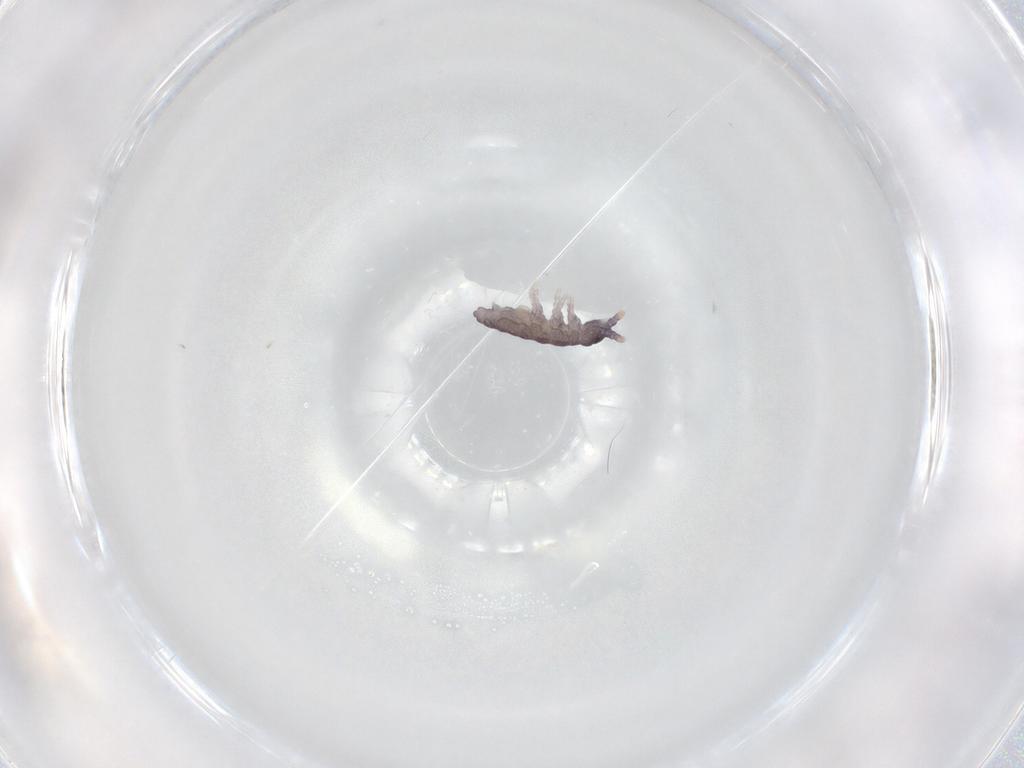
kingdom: Animalia
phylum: Arthropoda
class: Collembola
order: Poduromorpha
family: Neanuridae
